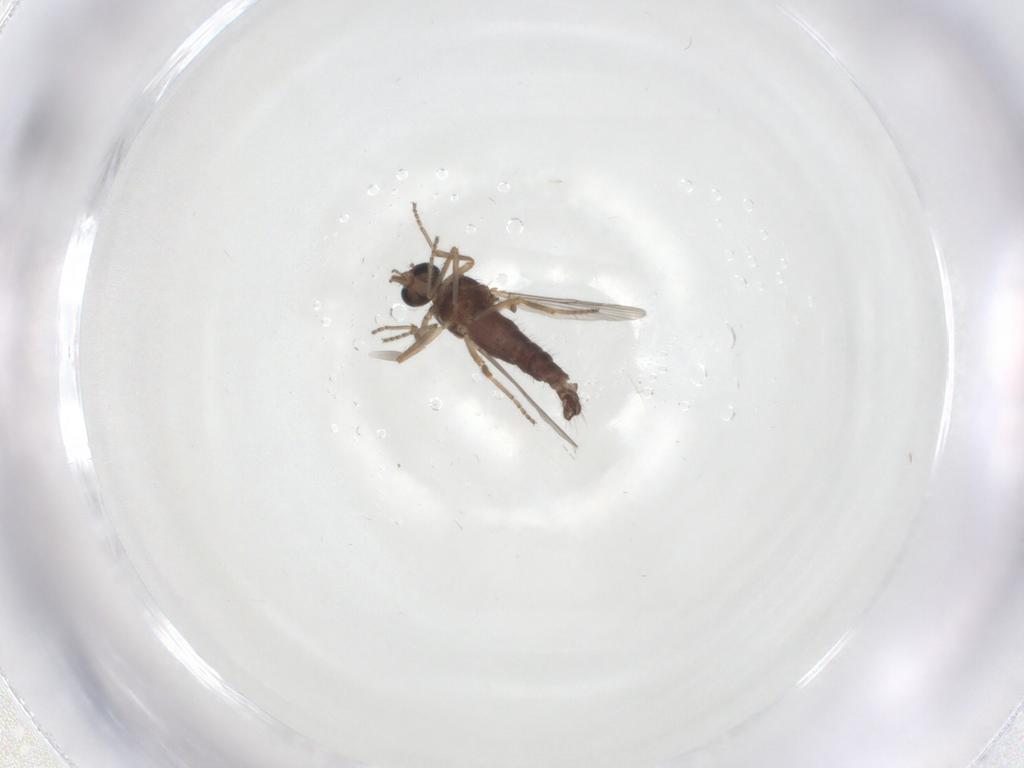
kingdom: Animalia
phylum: Arthropoda
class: Insecta
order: Diptera
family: Ceratopogonidae
